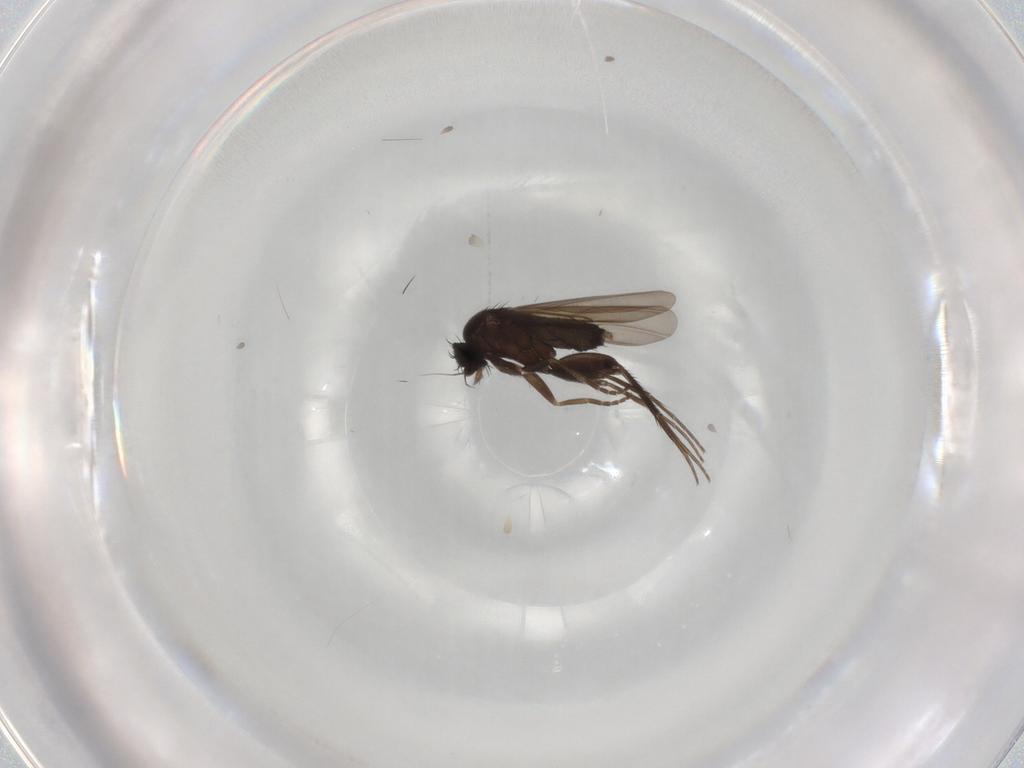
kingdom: Animalia
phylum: Arthropoda
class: Insecta
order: Diptera
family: Phoridae
